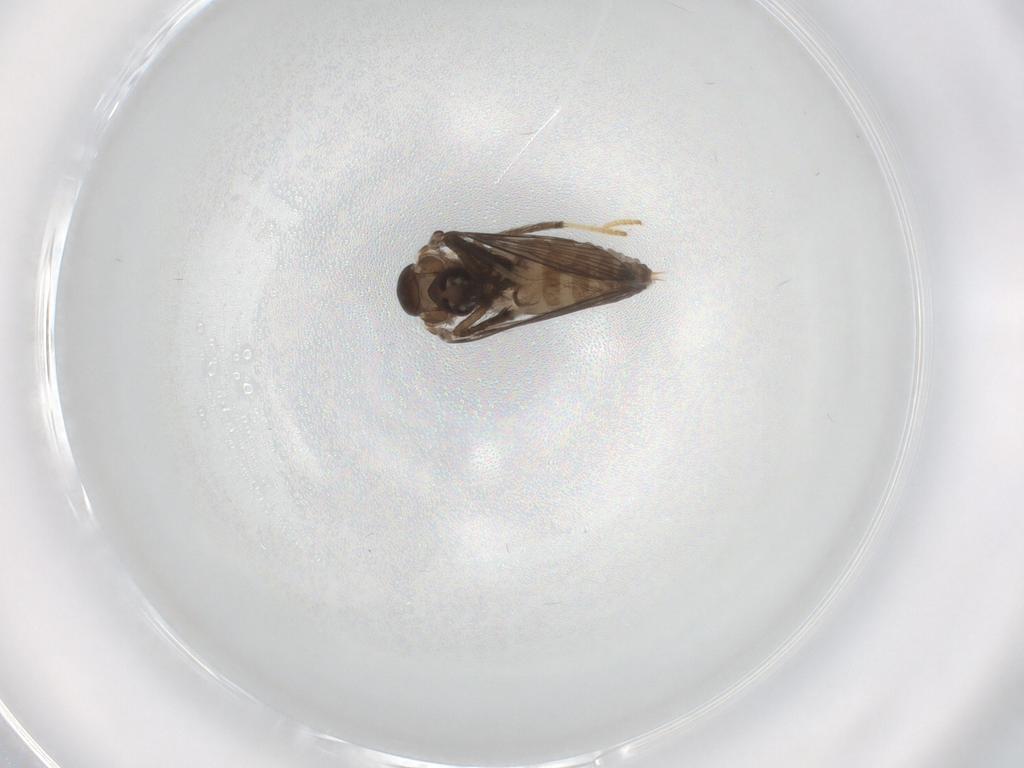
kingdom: Animalia
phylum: Arthropoda
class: Insecta
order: Diptera
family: Psychodidae
